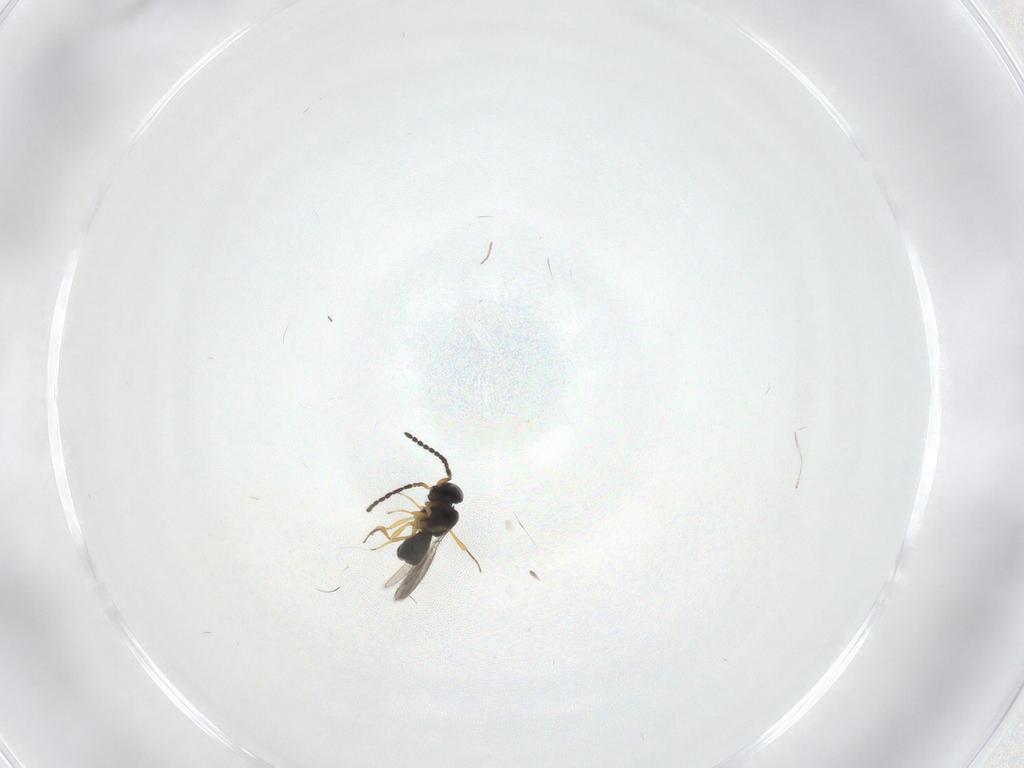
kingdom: Animalia
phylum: Arthropoda
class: Insecta
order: Hymenoptera
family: Scelionidae
